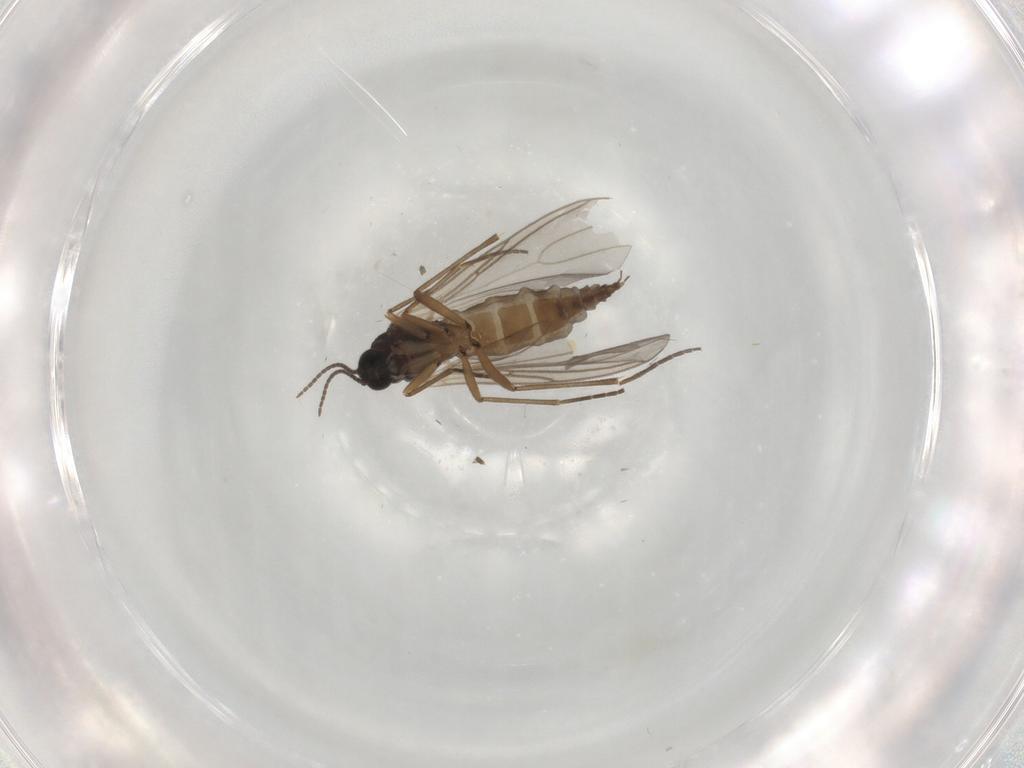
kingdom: Animalia
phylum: Arthropoda
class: Insecta
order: Diptera
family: Sciaridae
